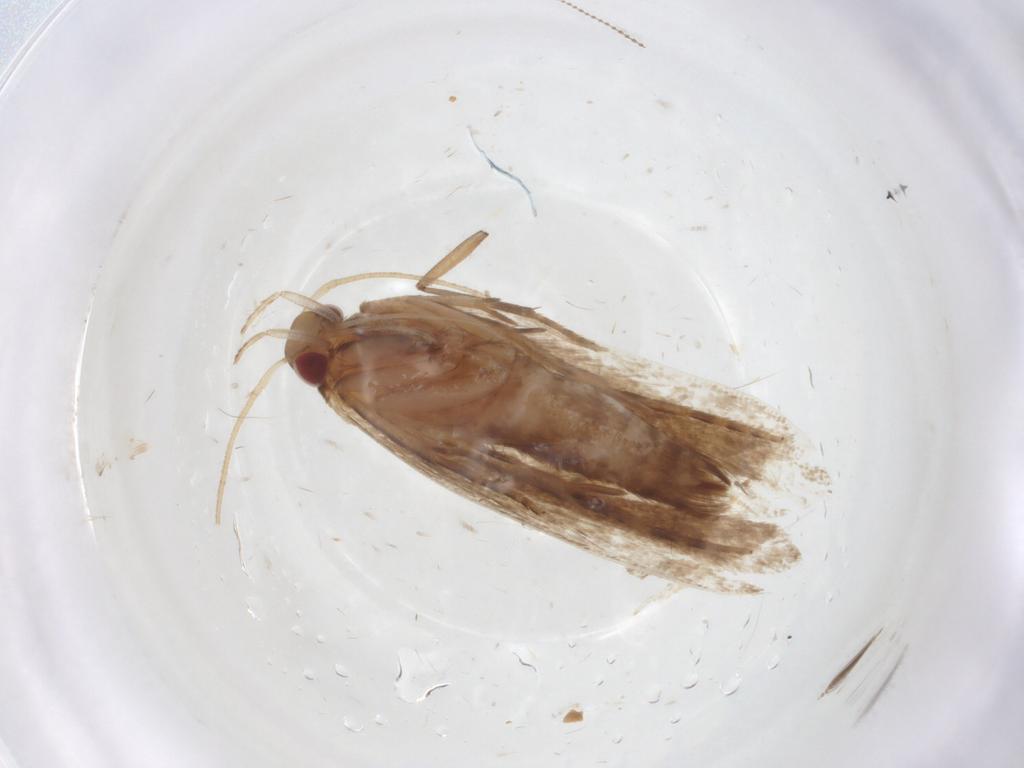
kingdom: Animalia
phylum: Arthropoda
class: Insecta
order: Lepidoptera
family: Gelechiidae
